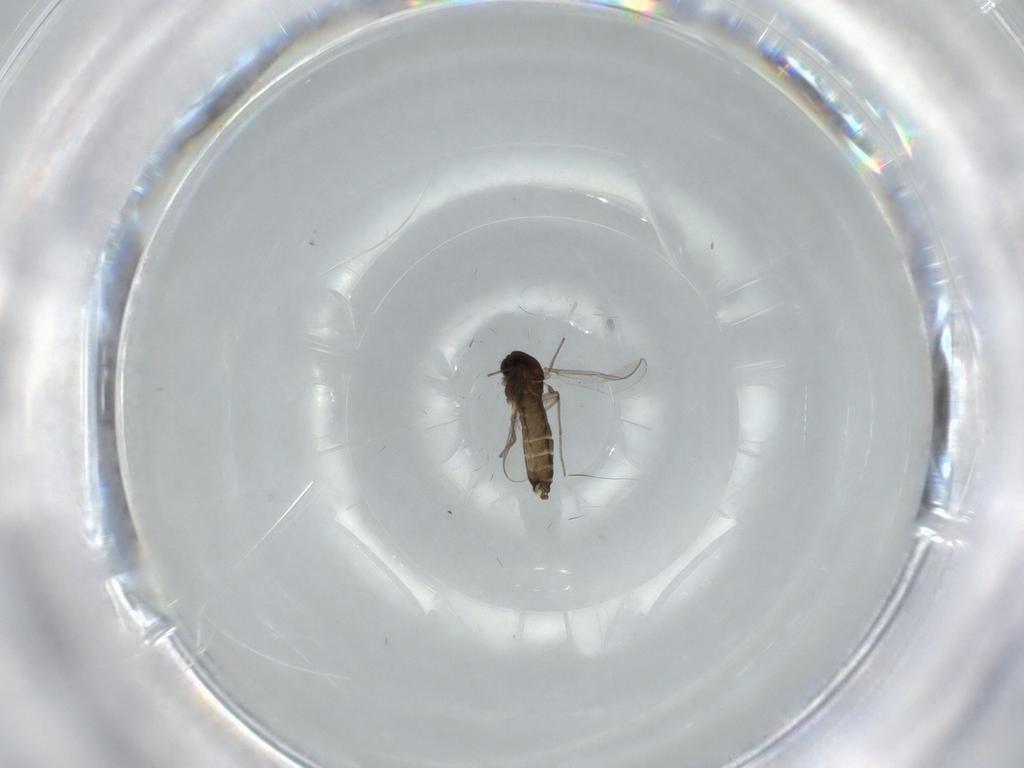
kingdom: Animalia
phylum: Arthropoda
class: Insecta
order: Diptera
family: Chironomidae
